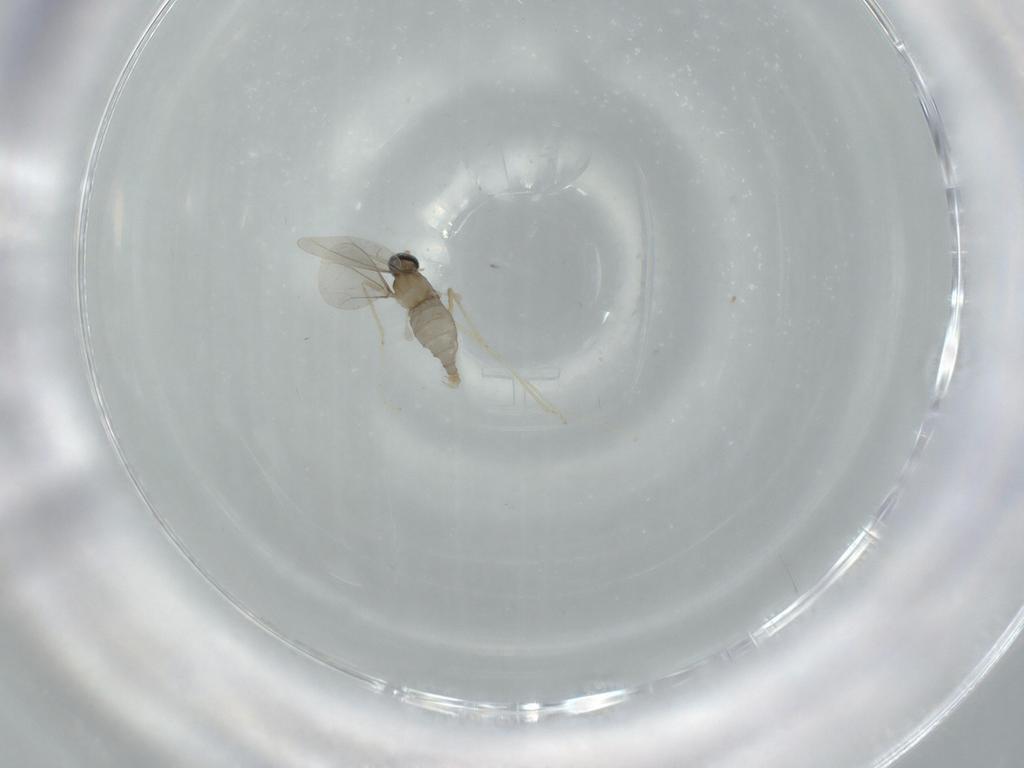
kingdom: Animalia
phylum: Arthropoda
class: Insecta
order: Diptera
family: Cecidomyiidae
